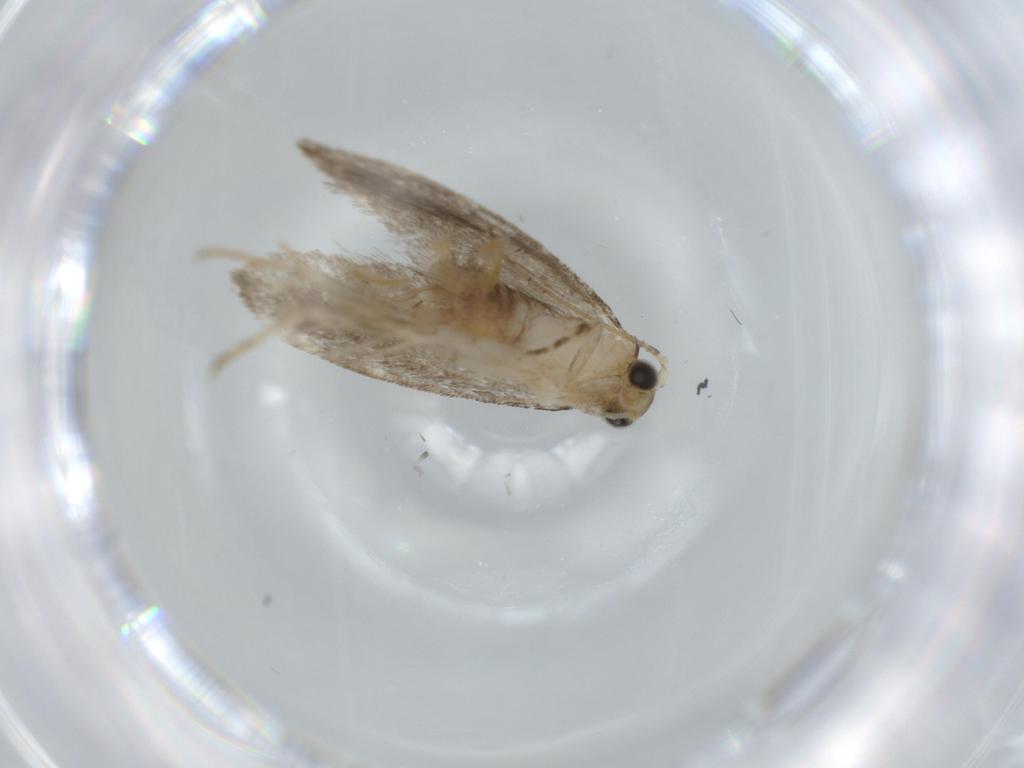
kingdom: Animalia
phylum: Arthropoda
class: Insecta
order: Lepidoptera
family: Tineidae
